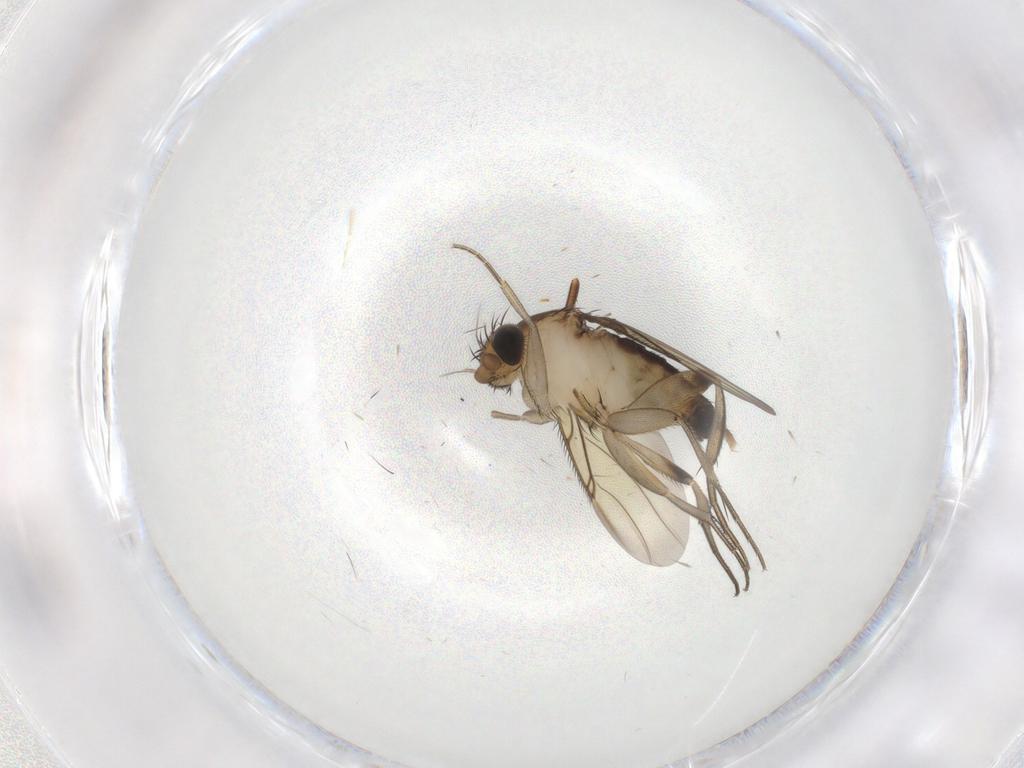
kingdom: Animalia
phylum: Arthropoda
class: Insecta
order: Diptera
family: Phoridae
